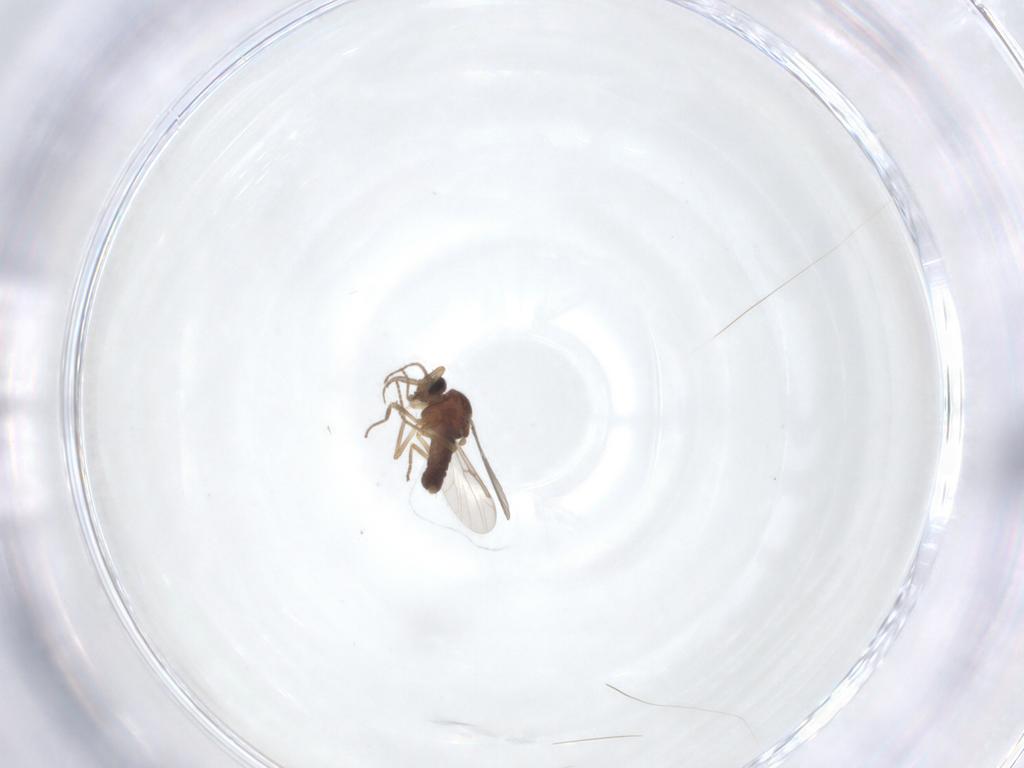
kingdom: Animalia
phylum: Arthropoda
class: Insecta
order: Diptera
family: Ceratopogonidae
